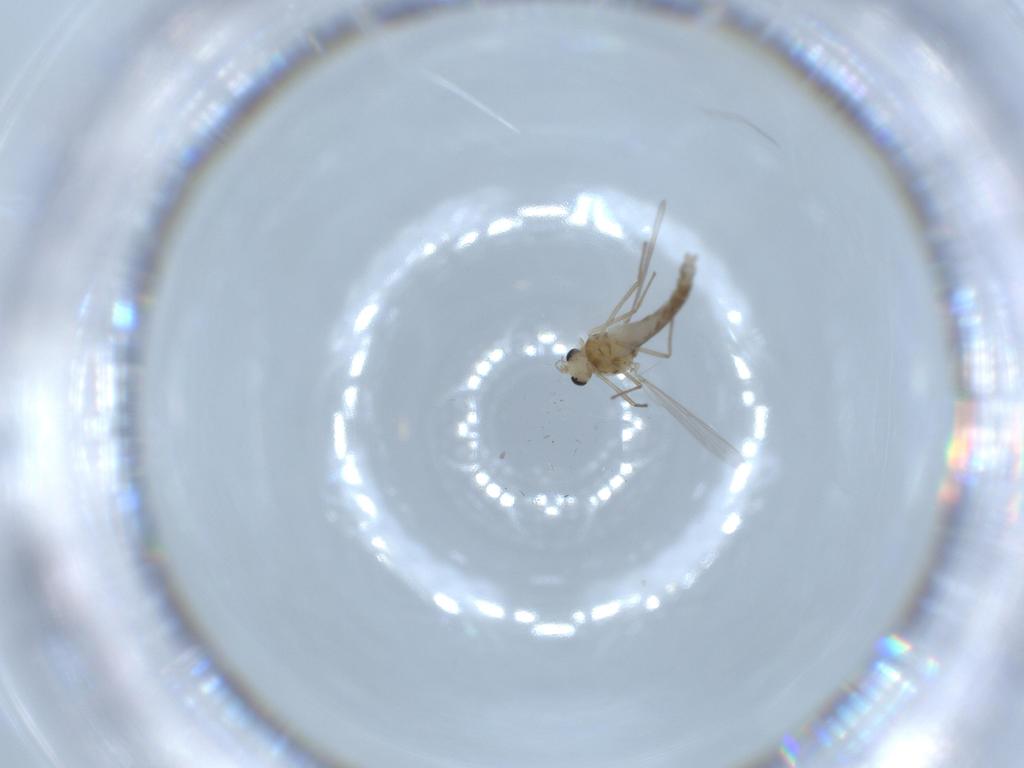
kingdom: Animalia
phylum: Arthropoda
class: Insecta
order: Diptera
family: Chironomidae
